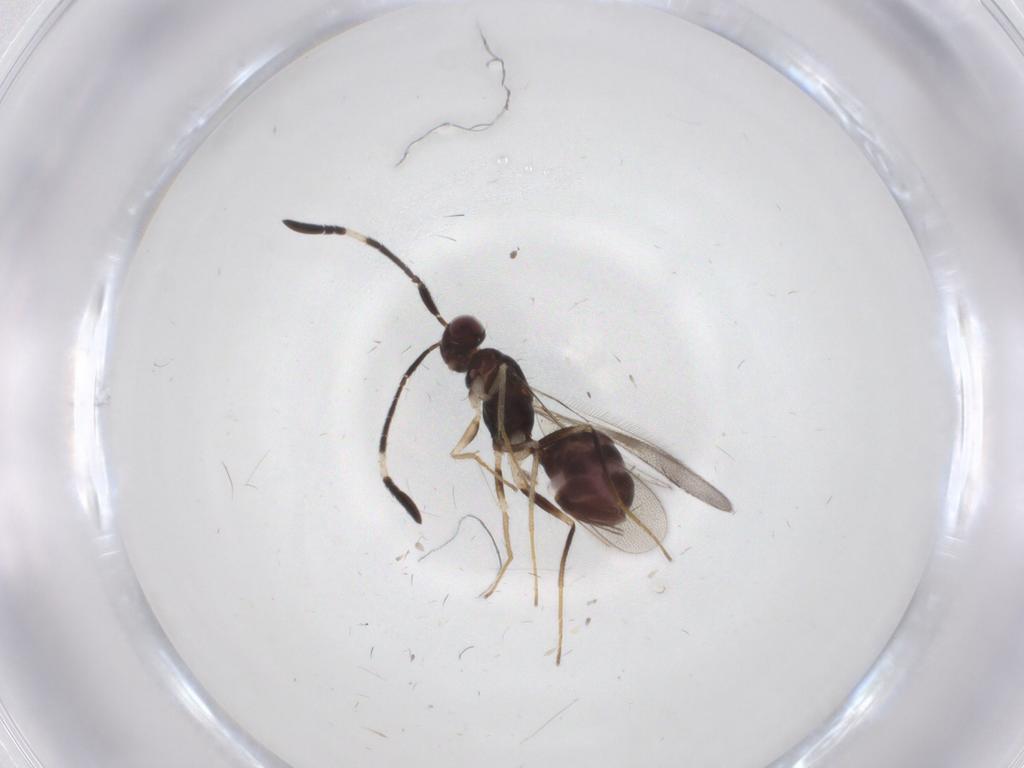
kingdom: Animalia
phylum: Arthropoda
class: Insecta
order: Hymenoptera
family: Mymaridae
